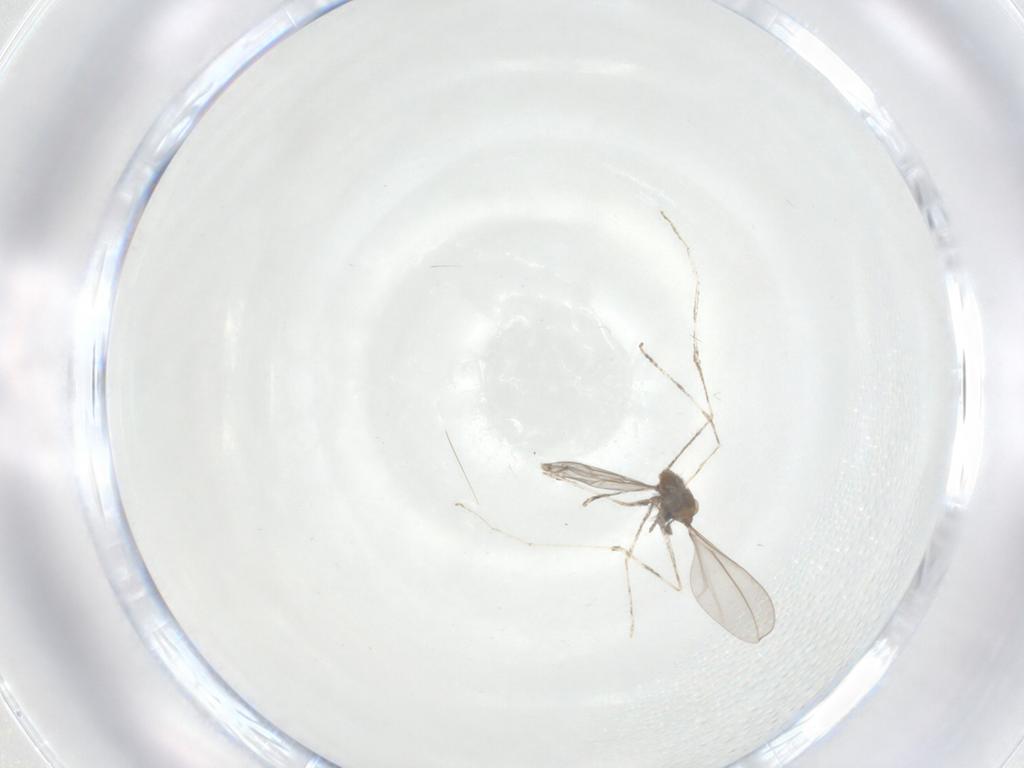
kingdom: Animalia
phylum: Arthropoda
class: Insecta
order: Diptera
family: Cecidomyiidae
